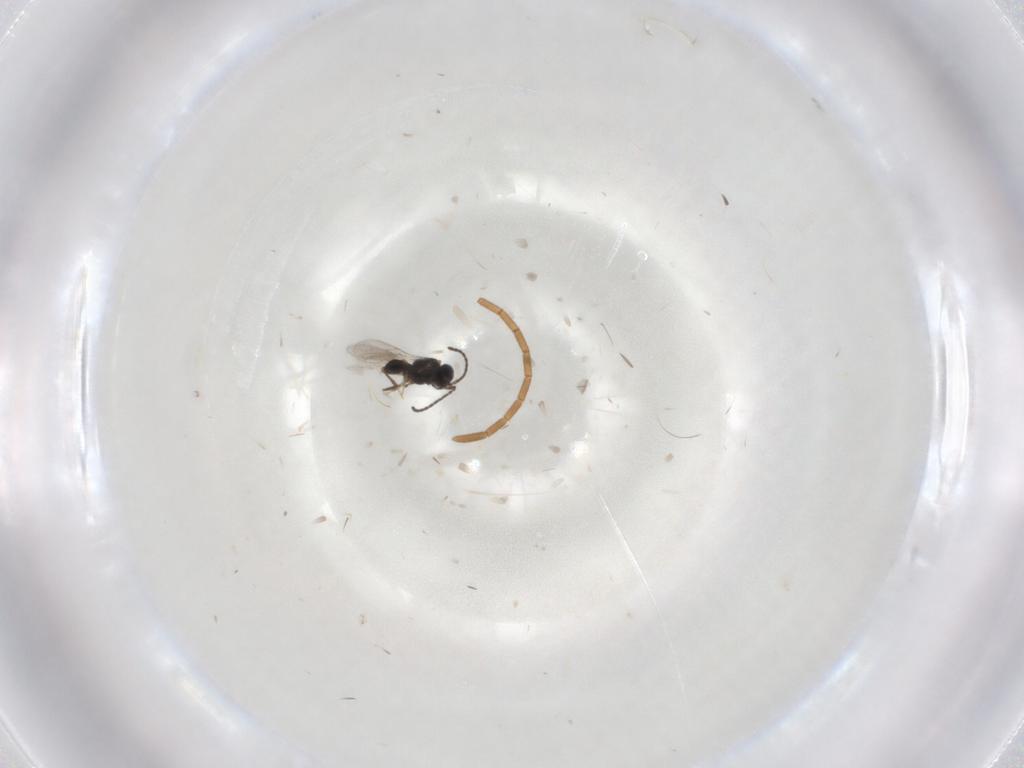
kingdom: Animalia
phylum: Arthropoda
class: Insecta
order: Hymenoptera
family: Scelionidae
